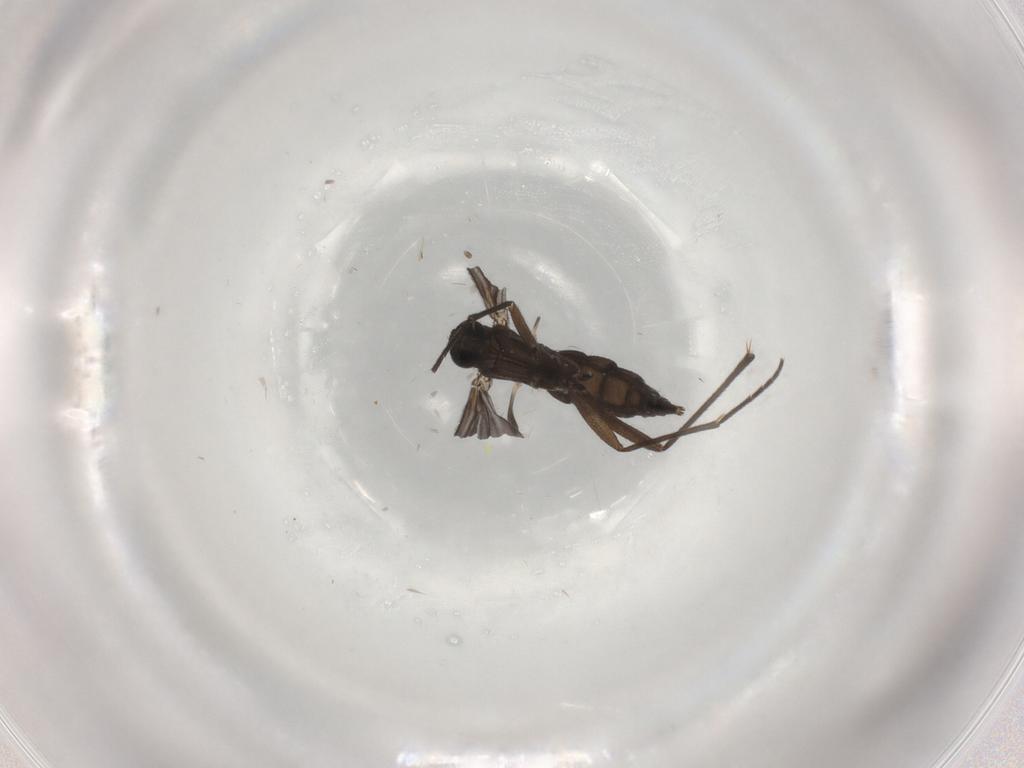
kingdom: Animalia
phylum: Arthropoda
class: Insecta
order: Diptera
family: Sciaridae
